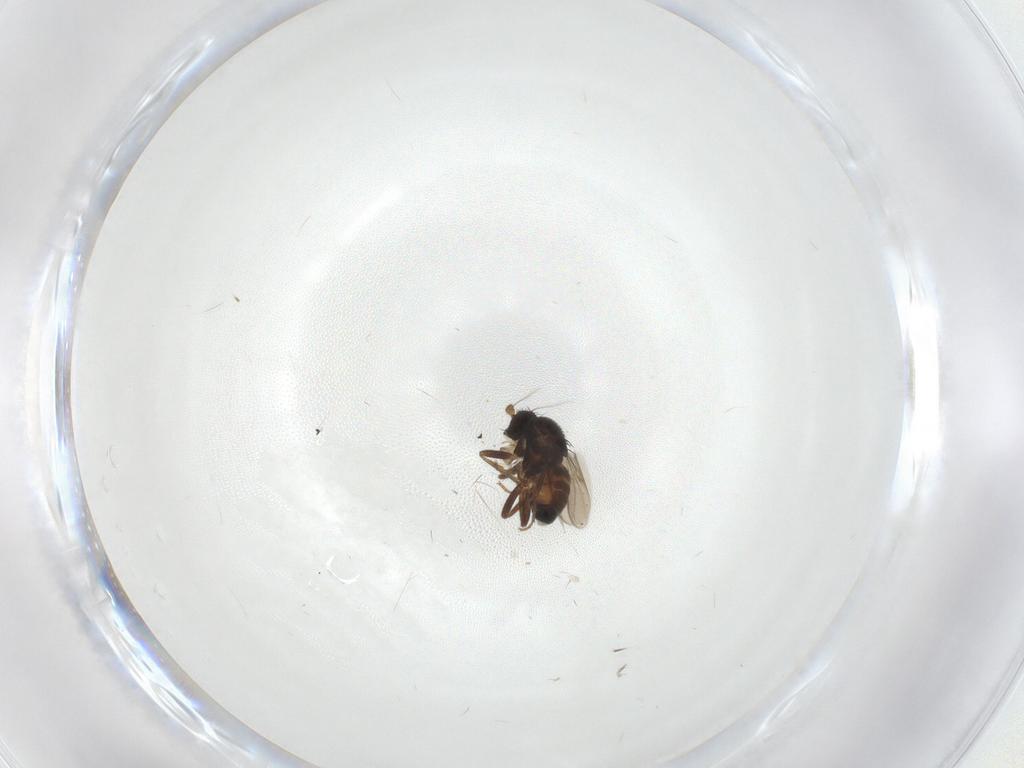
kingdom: Animalia
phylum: Arthropoda
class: Insecta
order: Diptera
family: Sphaeroceridae
